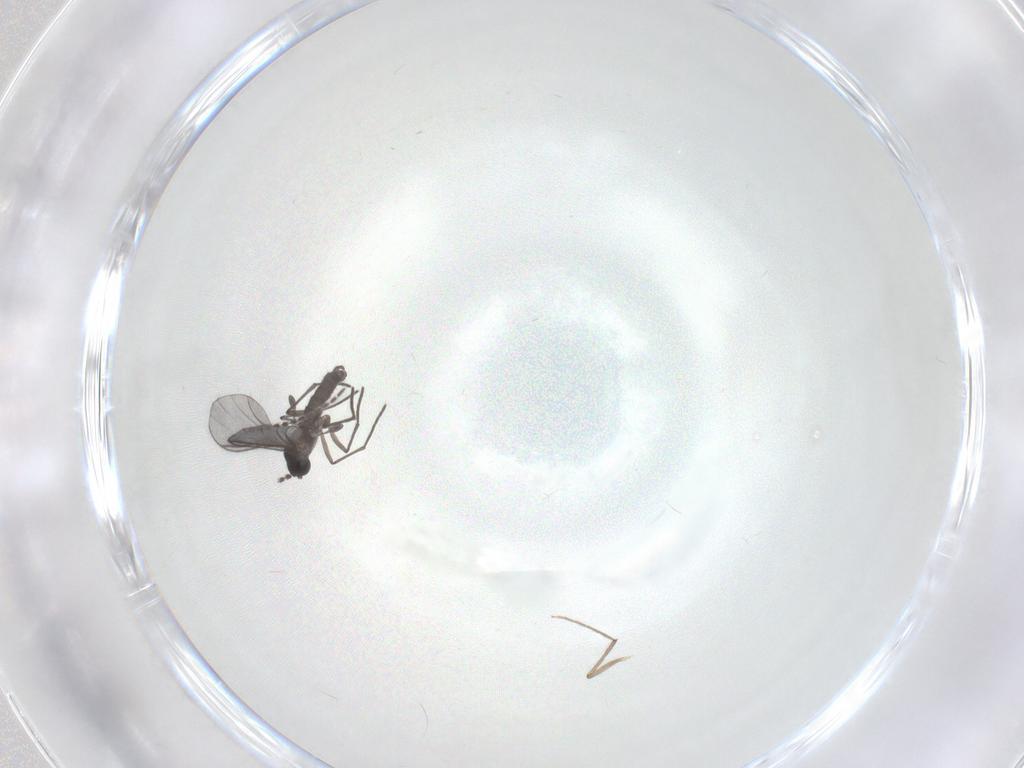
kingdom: Animalia
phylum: Arthropoda
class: Insecta
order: Diptera
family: Chironomidae
